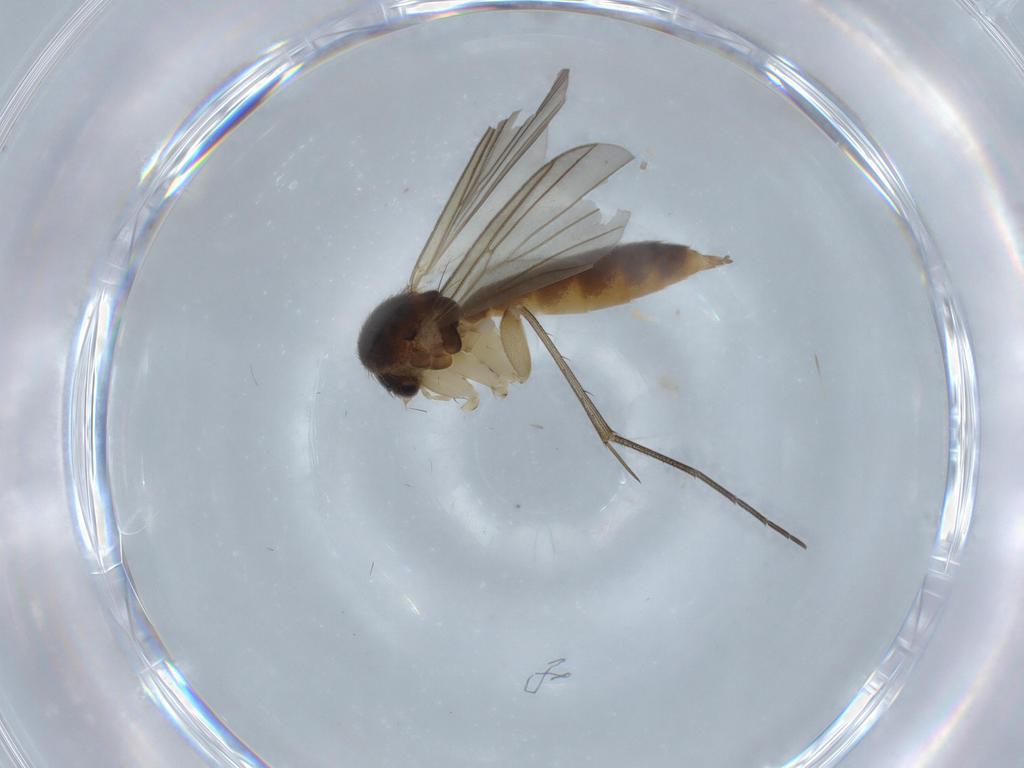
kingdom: Animalia
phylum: Arthropoda
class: Insecta
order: Diptera
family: Mycetophilidae
